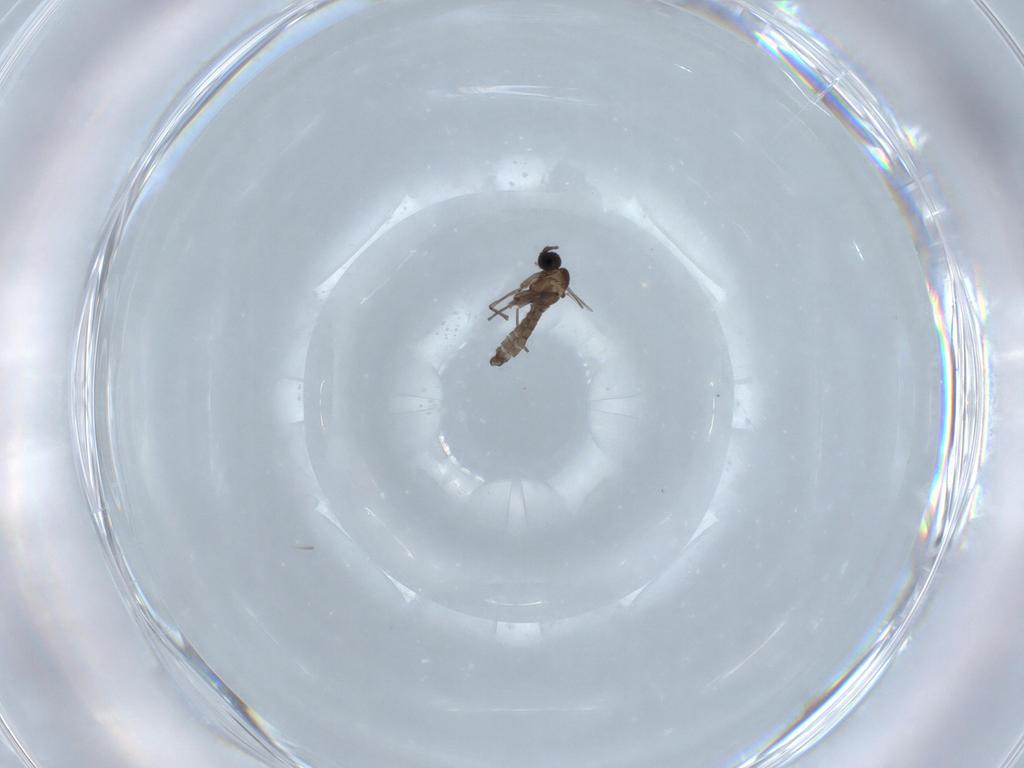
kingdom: Animalia
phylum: Arthropoda
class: Insecta
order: Diptera
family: Sciaridae
